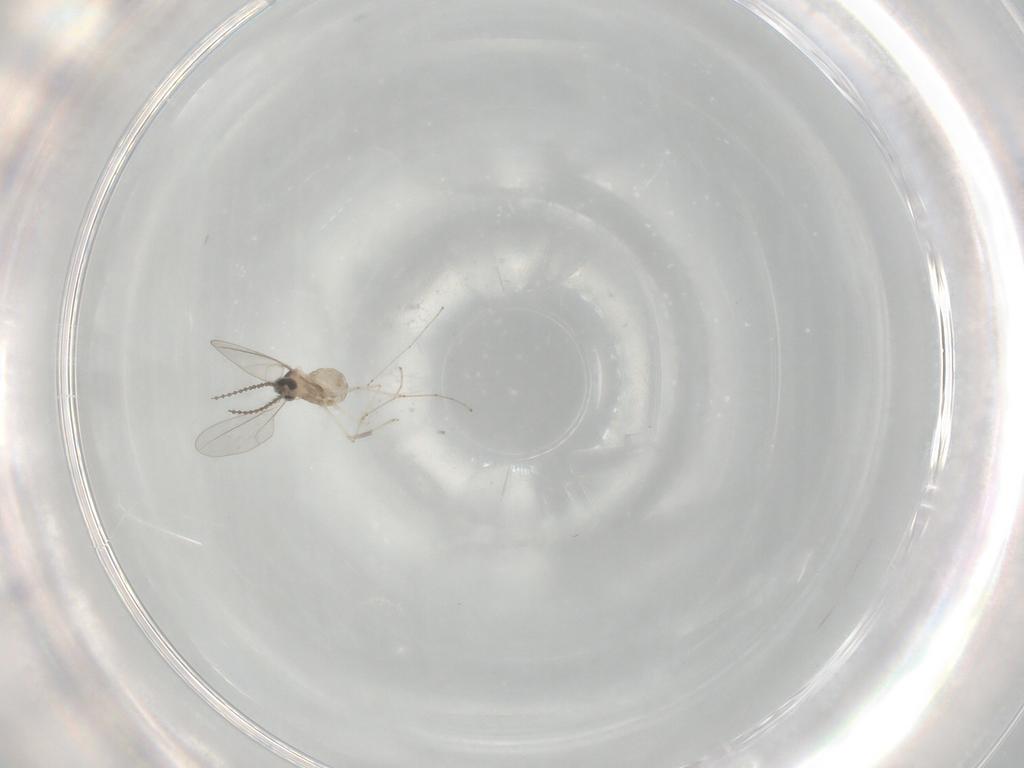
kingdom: Animalia
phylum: Arthropoda
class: Insecta
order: Diptera
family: Cecidomyiidae
